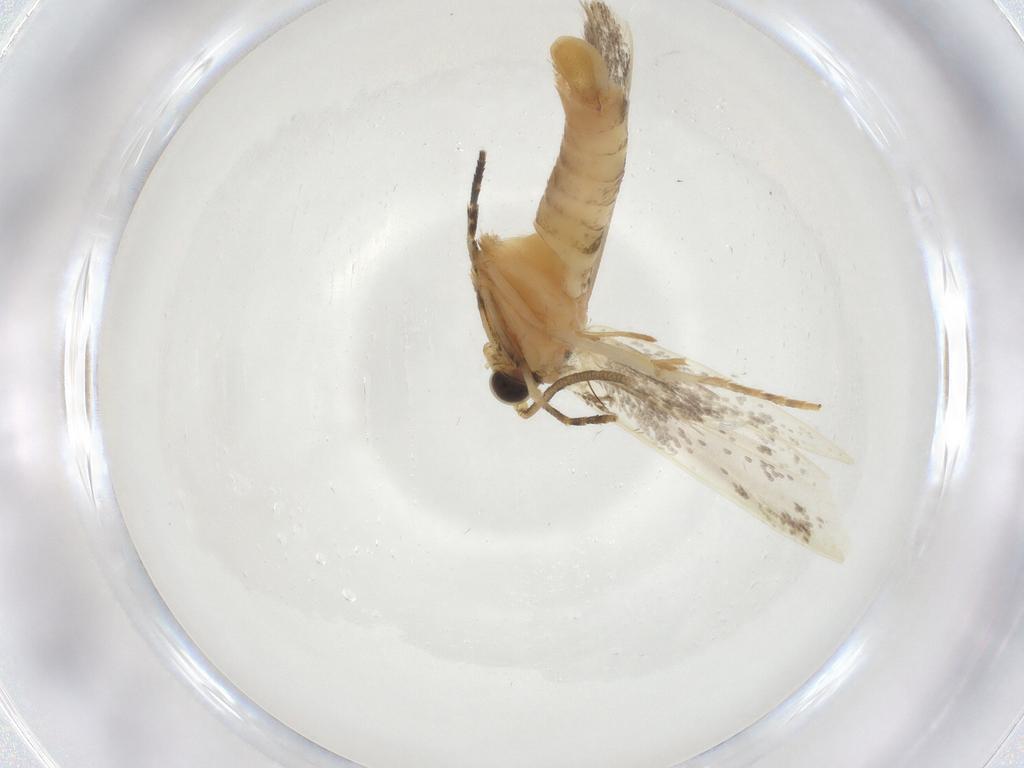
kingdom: Animalia
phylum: Arthropoda
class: Insecta
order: Lepidoptera
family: Tineidae
